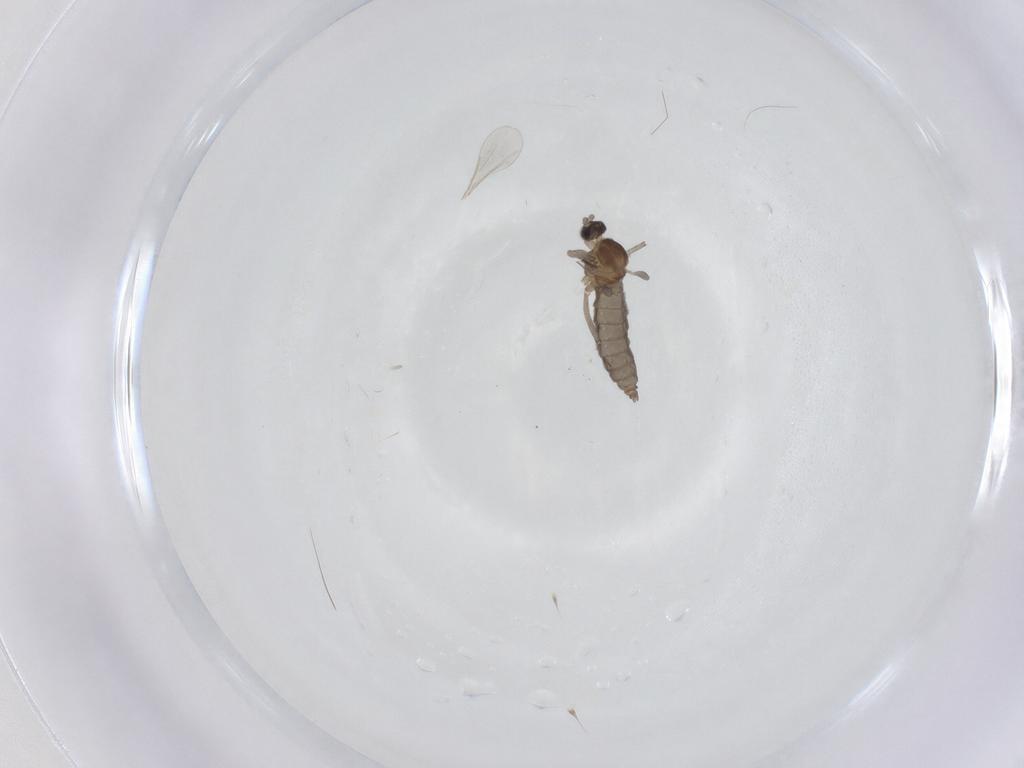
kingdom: Animalia
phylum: Arthropoda
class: Insecta
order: Diptera
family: Cecidomyiidae
